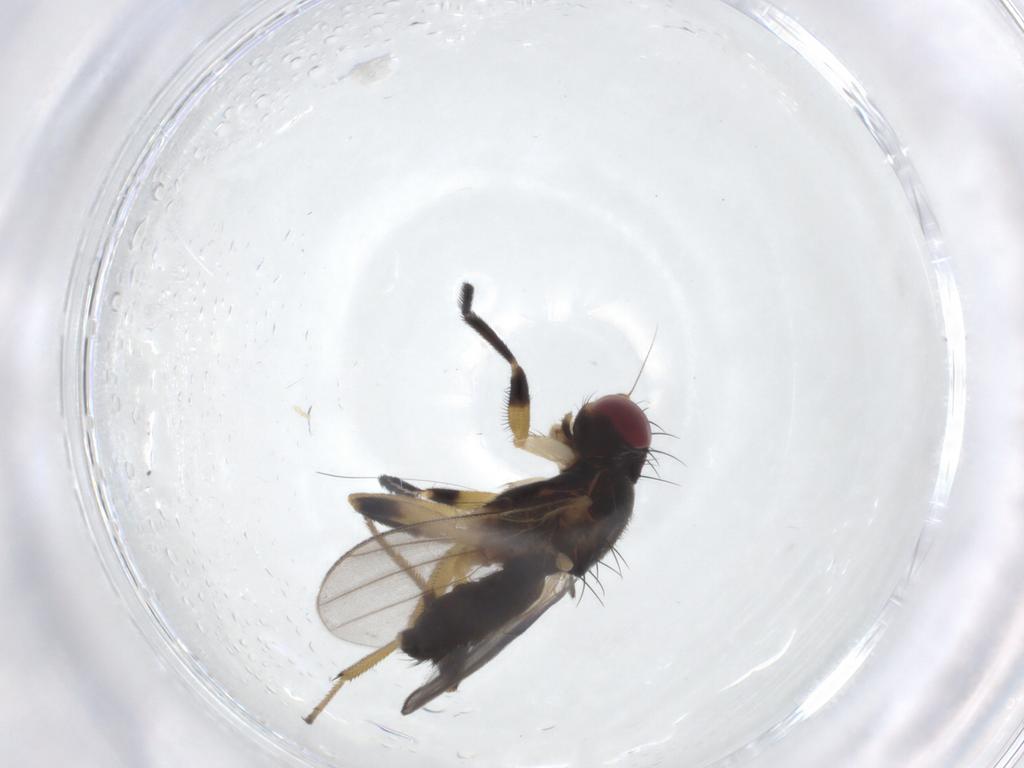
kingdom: Animalia
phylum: Arthropoda
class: Insecta
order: Diptera
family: Clusiidae
